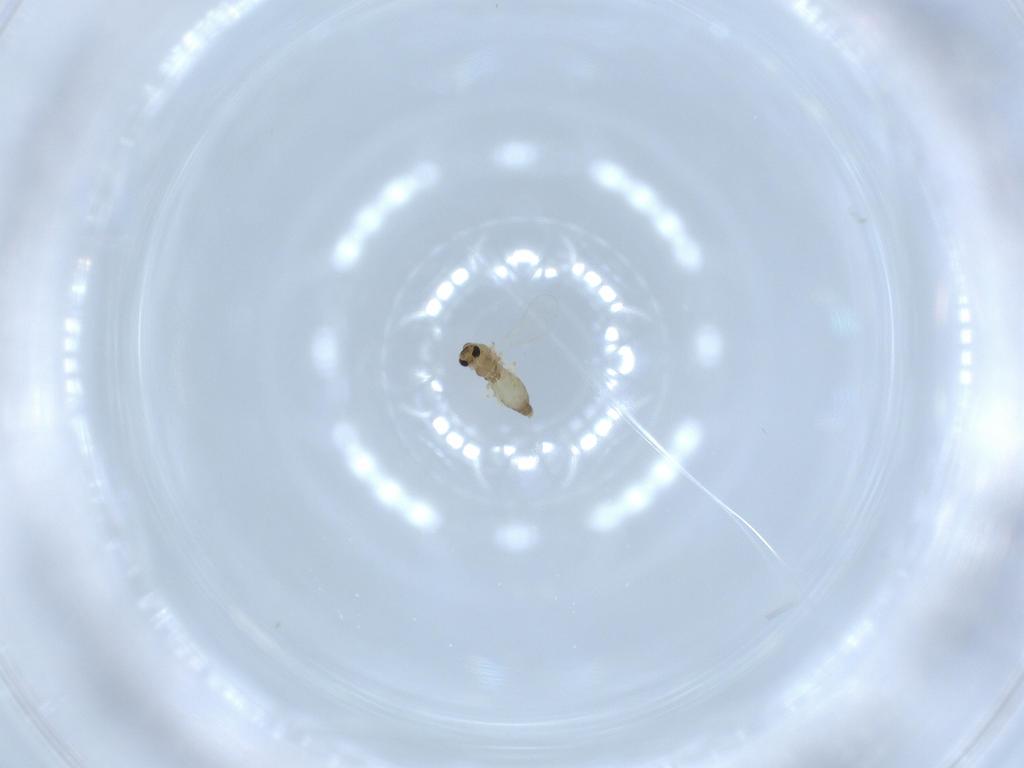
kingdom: Animalia
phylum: Arthropoda
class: Insecta
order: Diptera
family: Chironomidae
